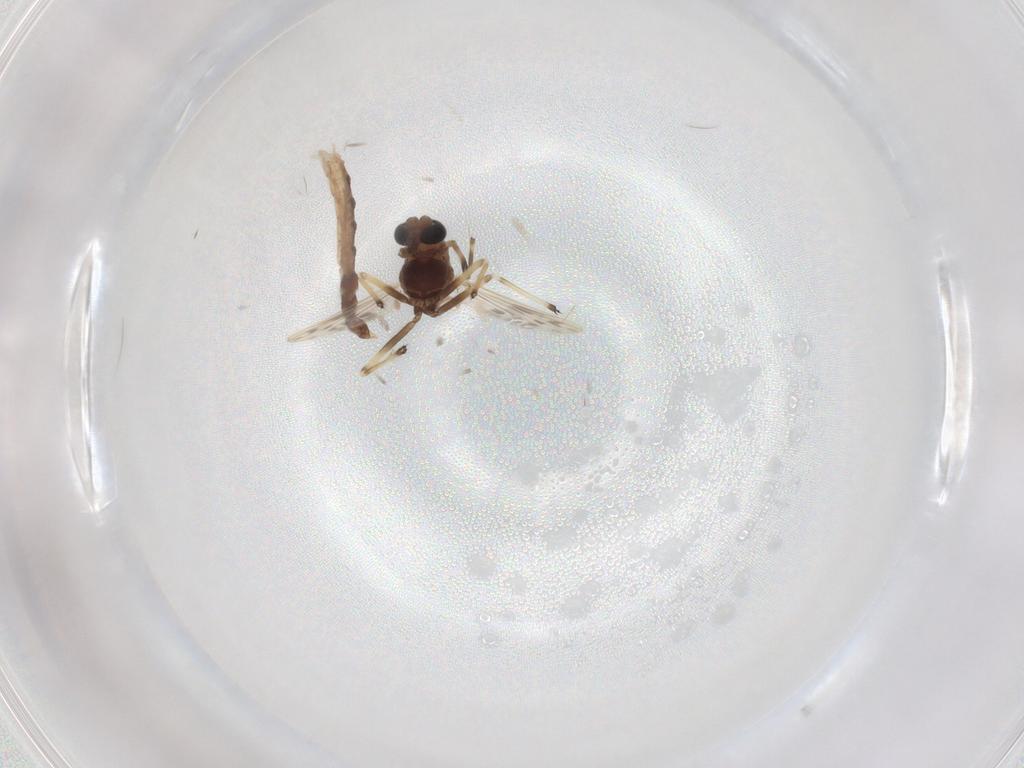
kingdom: Animalia
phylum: Arthropoda
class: Insecta
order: Diptera
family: Chironomidae
